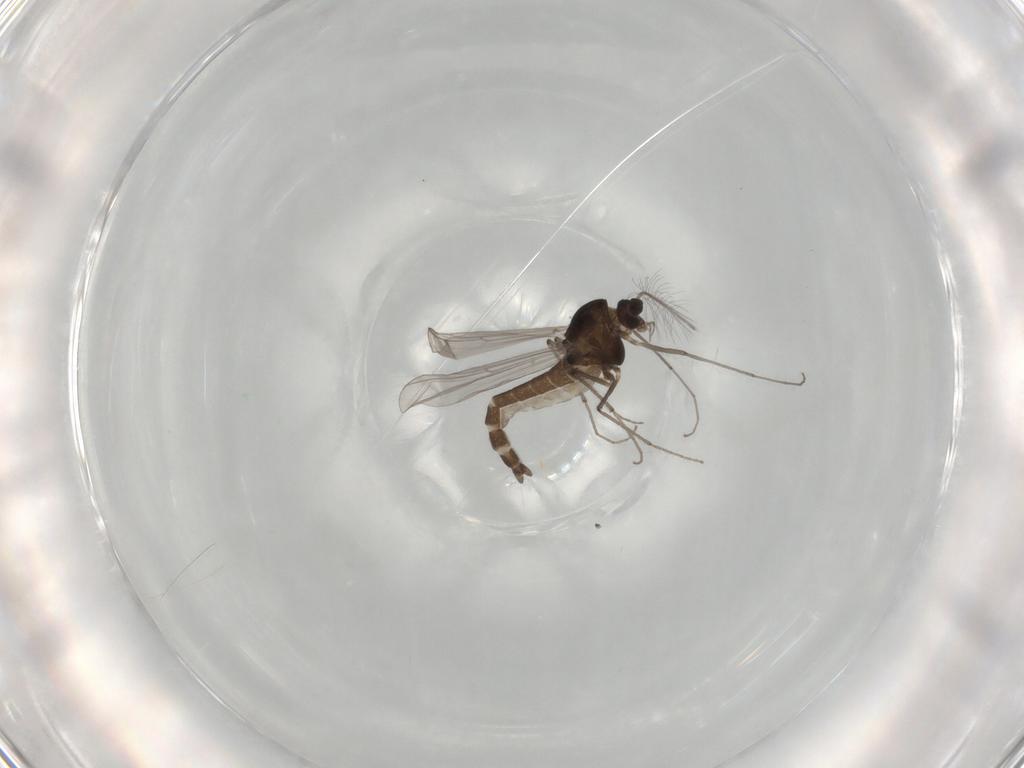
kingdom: Animalia
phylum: Arthropoda
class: Insecta
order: Diptera
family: Chironomidae
